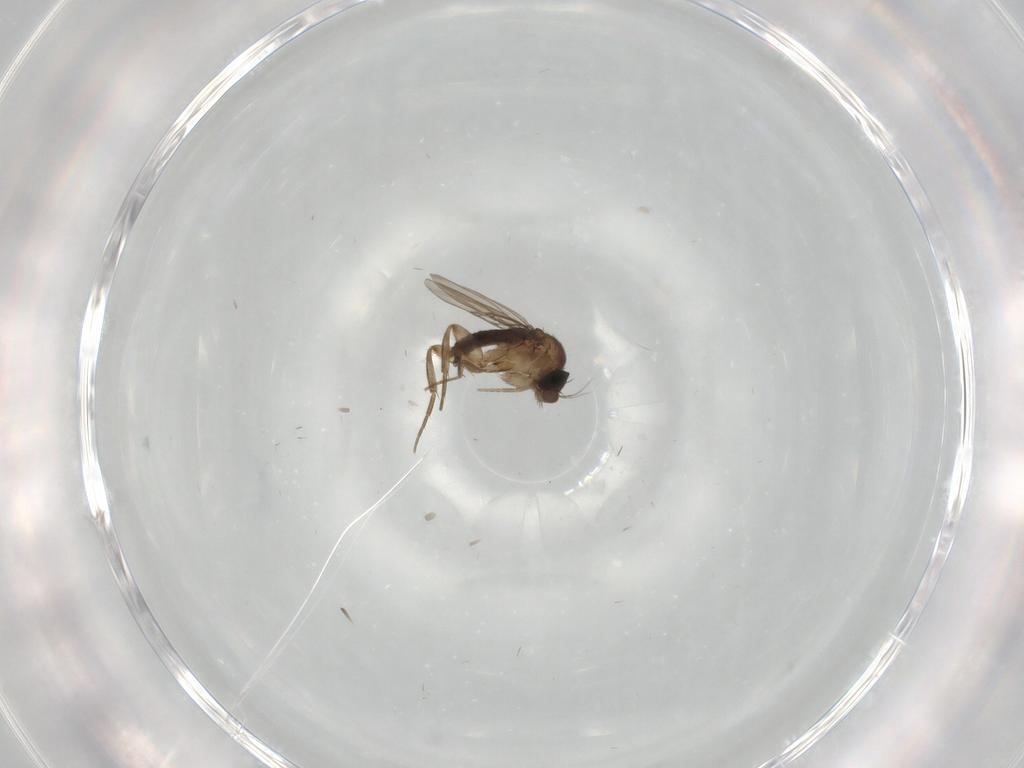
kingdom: Animalia
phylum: Arthropoda
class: Insecta
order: Diptera
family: Phoridae
